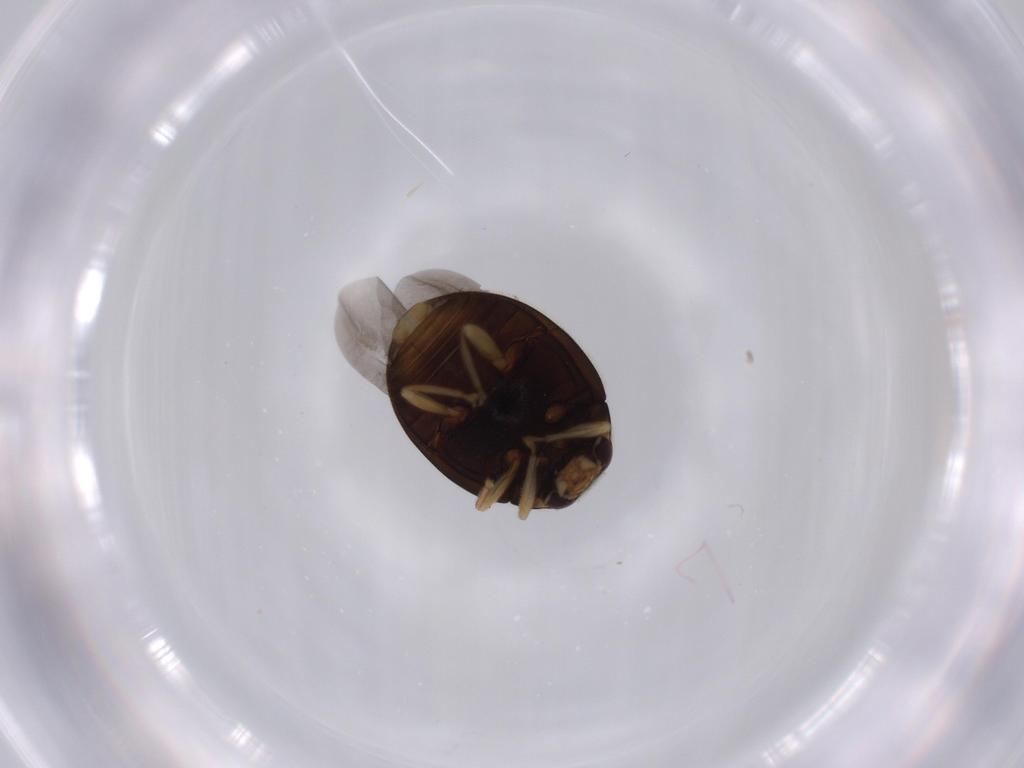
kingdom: Animalia
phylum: Arthropoda
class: Insecta
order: Coleoptera
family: Coccinellidae
